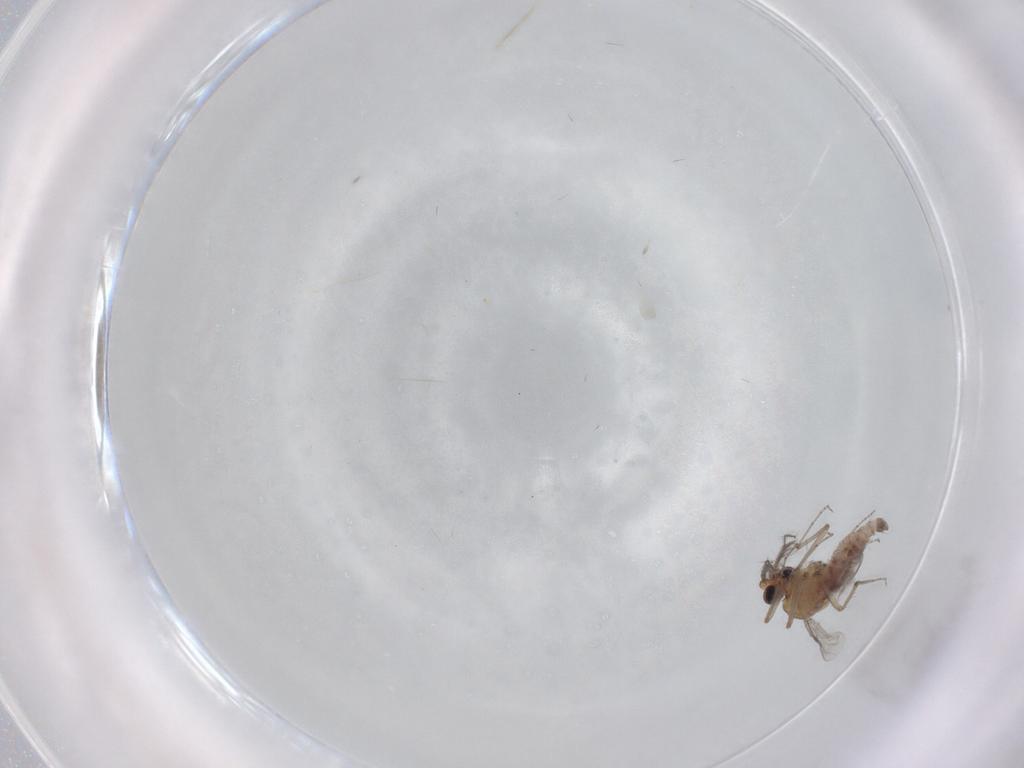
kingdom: Animalia
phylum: Arthropoda
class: Insecta
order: Diptera
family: Ceratopogonidae
